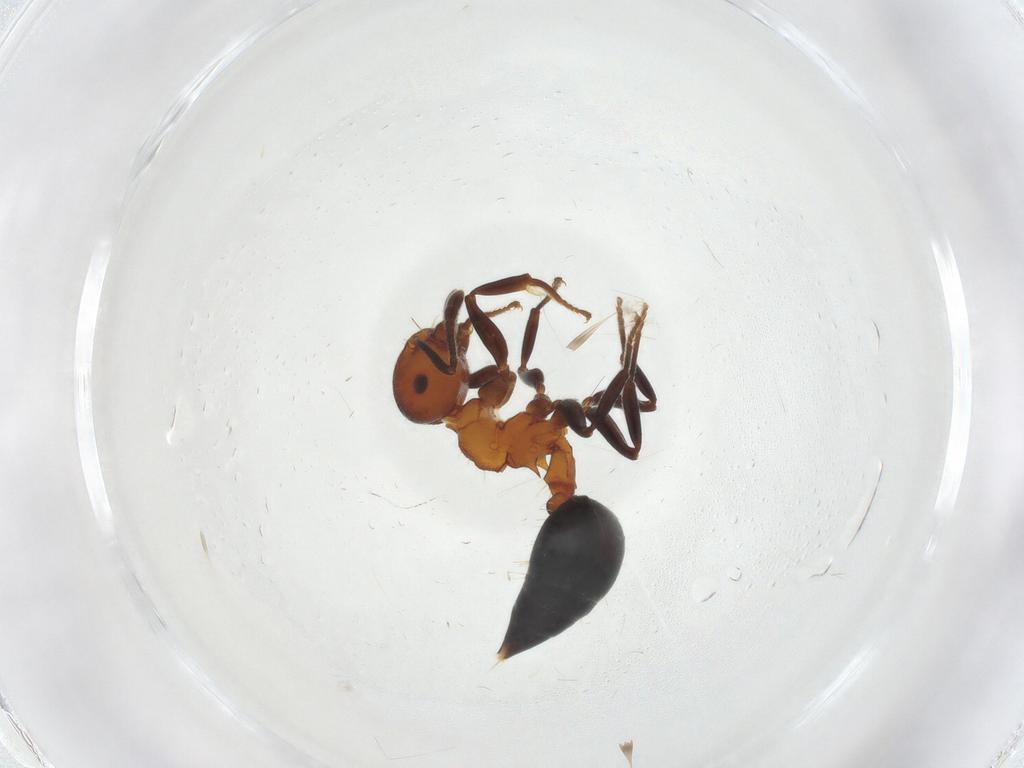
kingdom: Animalia
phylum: Arthropoda
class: Insecta
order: Hymenoptera
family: Formicidae
